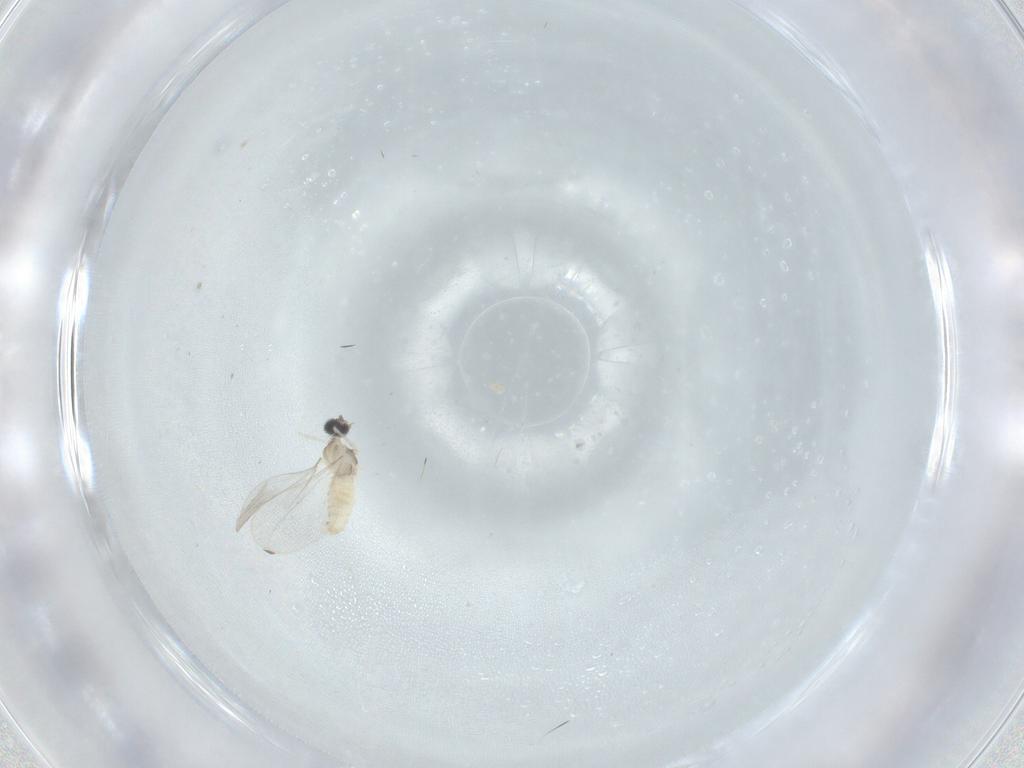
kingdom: Animalia
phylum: Arthropoda
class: Insecta
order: Diptera
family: Cecidomyiidae
